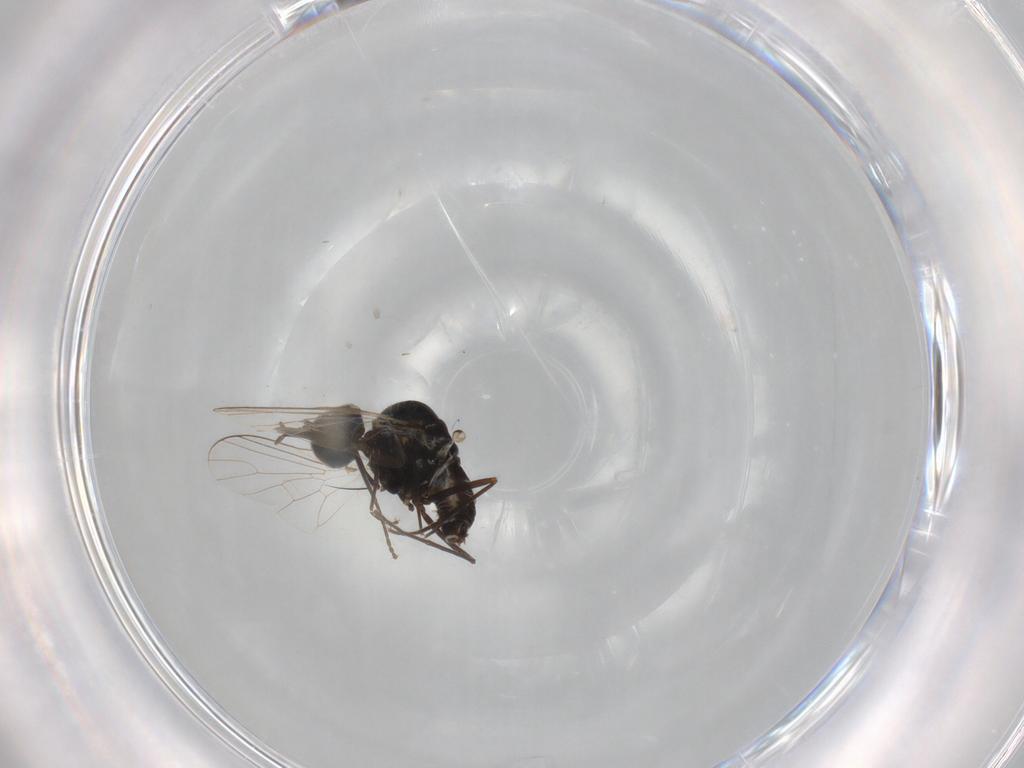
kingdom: Animalia
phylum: Arthropoda
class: Insecta
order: Diptera
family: Bombyliidae
